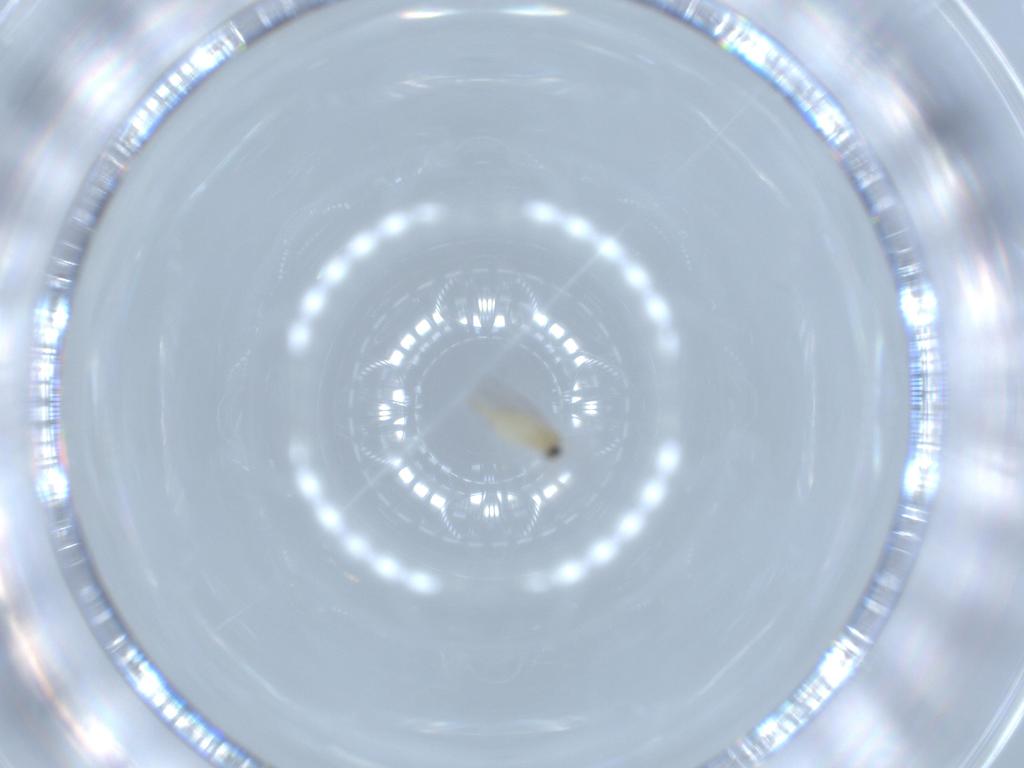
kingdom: Animalia
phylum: Arthropoda
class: Insecta
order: Diptera
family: Cecidomyiidae
